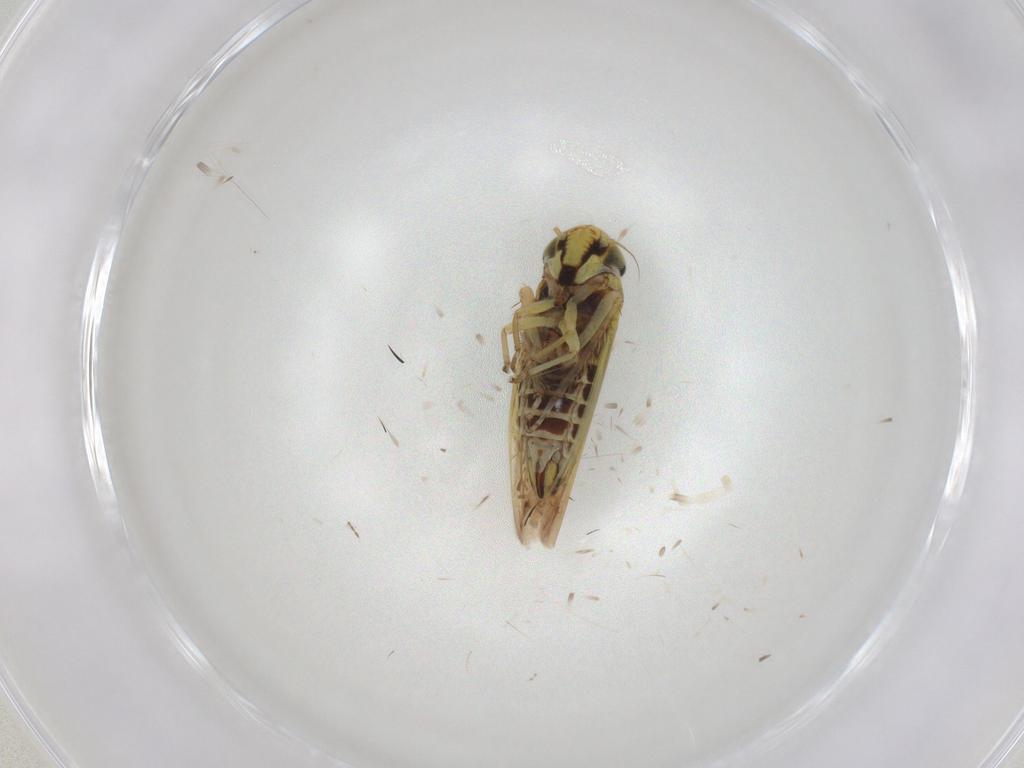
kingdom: Animalia
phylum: Arthropoda
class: Insecta
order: Hemiptera
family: Cicadellidae
